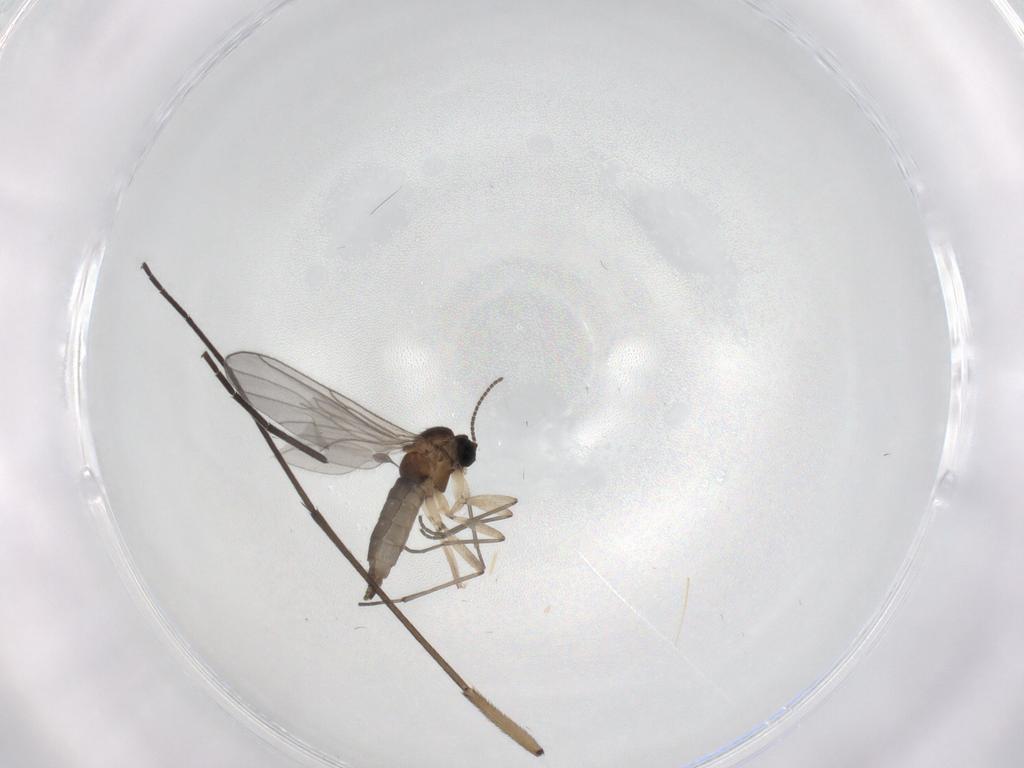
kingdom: Animalia
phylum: Arthropoda
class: Insecta
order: Diptera
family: Sciaridae
